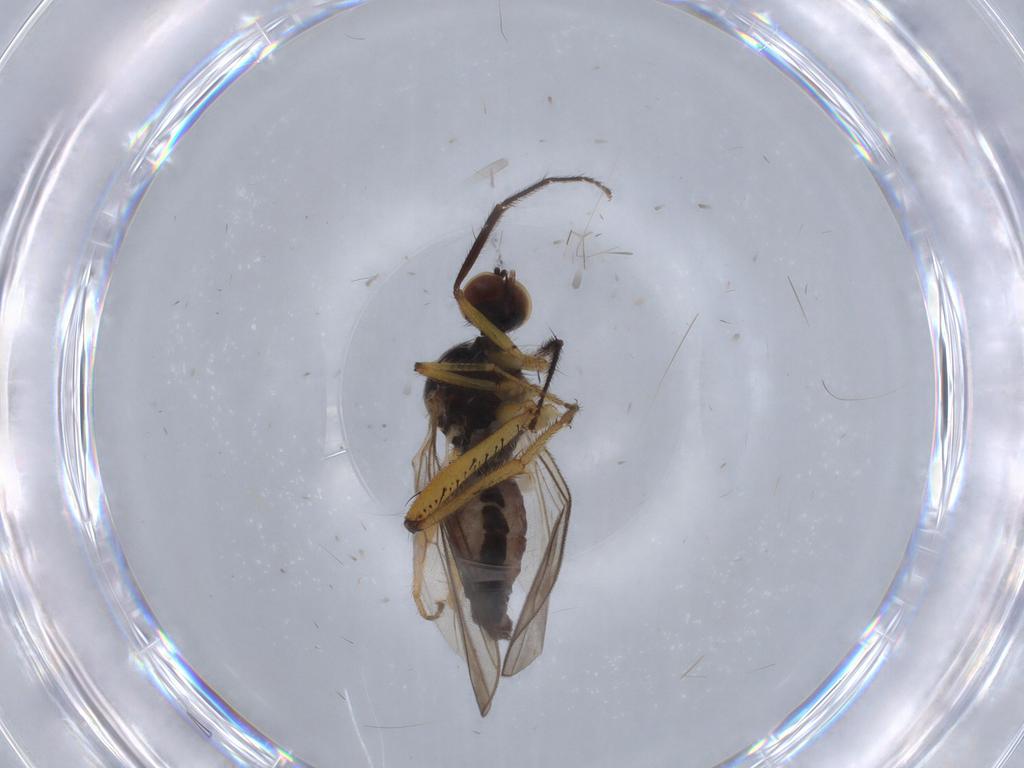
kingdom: Animalia
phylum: Arthropoda
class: Insecta
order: Diptera
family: Hybotidae
